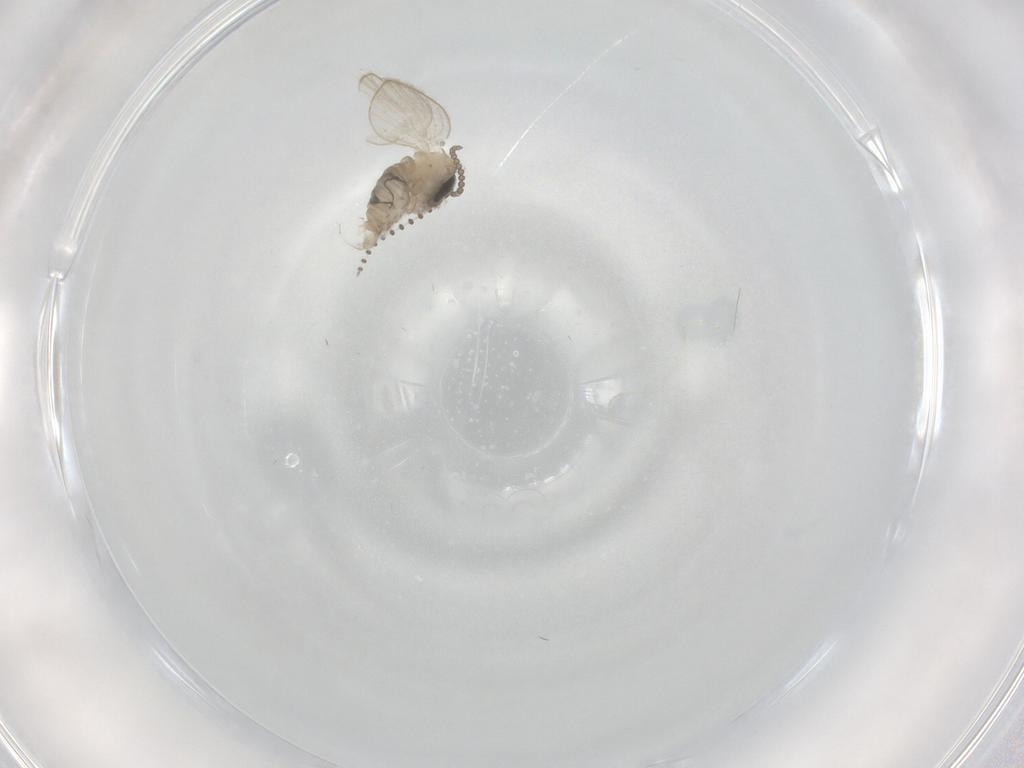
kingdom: Animalia
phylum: Arthropoda
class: Insecta
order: Diptera
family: Psychodidae
